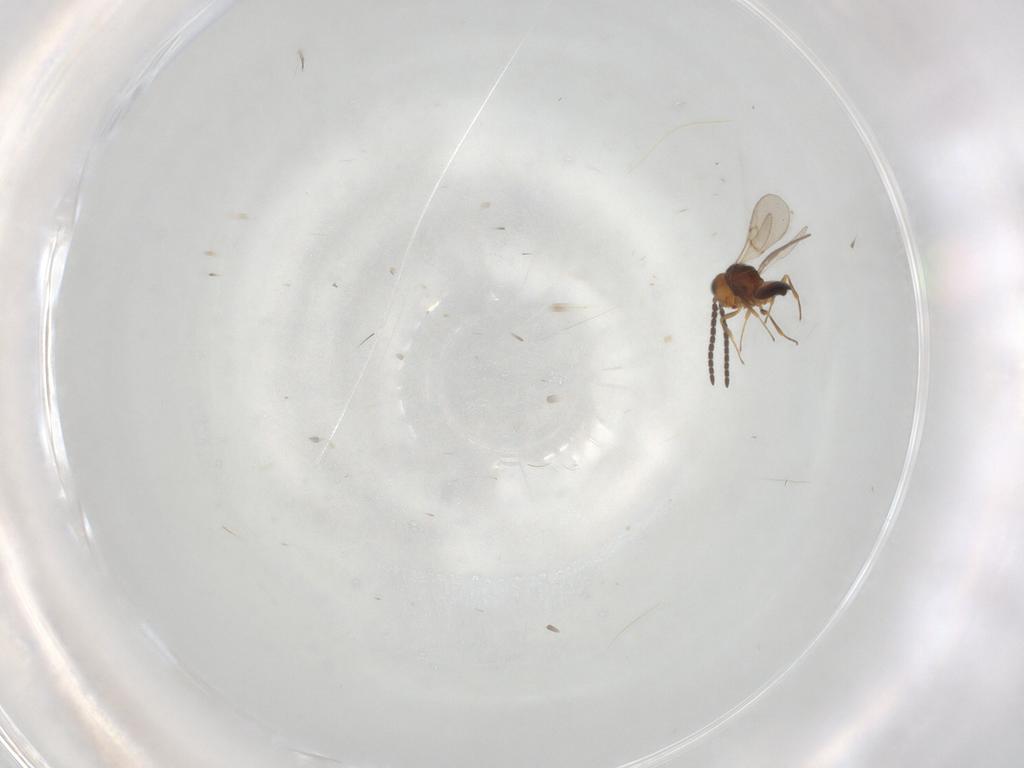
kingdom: Animalia
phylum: Arthropoda
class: Insecta
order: Hymenoptera
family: Scelionidae
